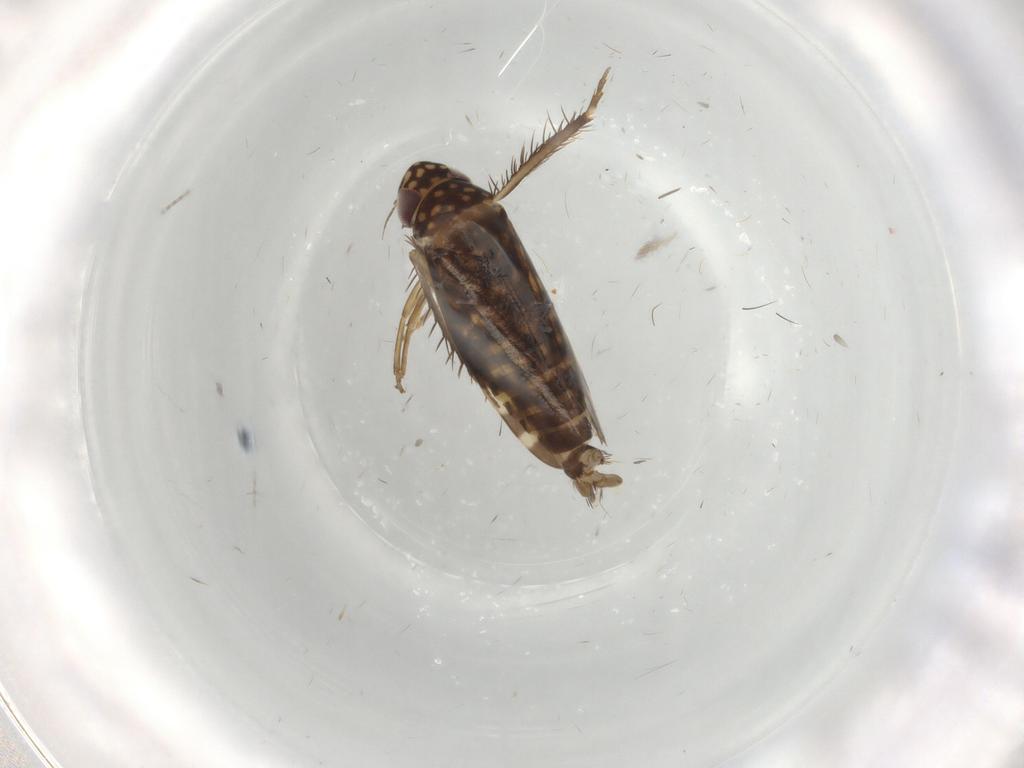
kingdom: Animalia
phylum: Arthropoda
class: Insecta
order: Hemiptera
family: Cicadellidae
